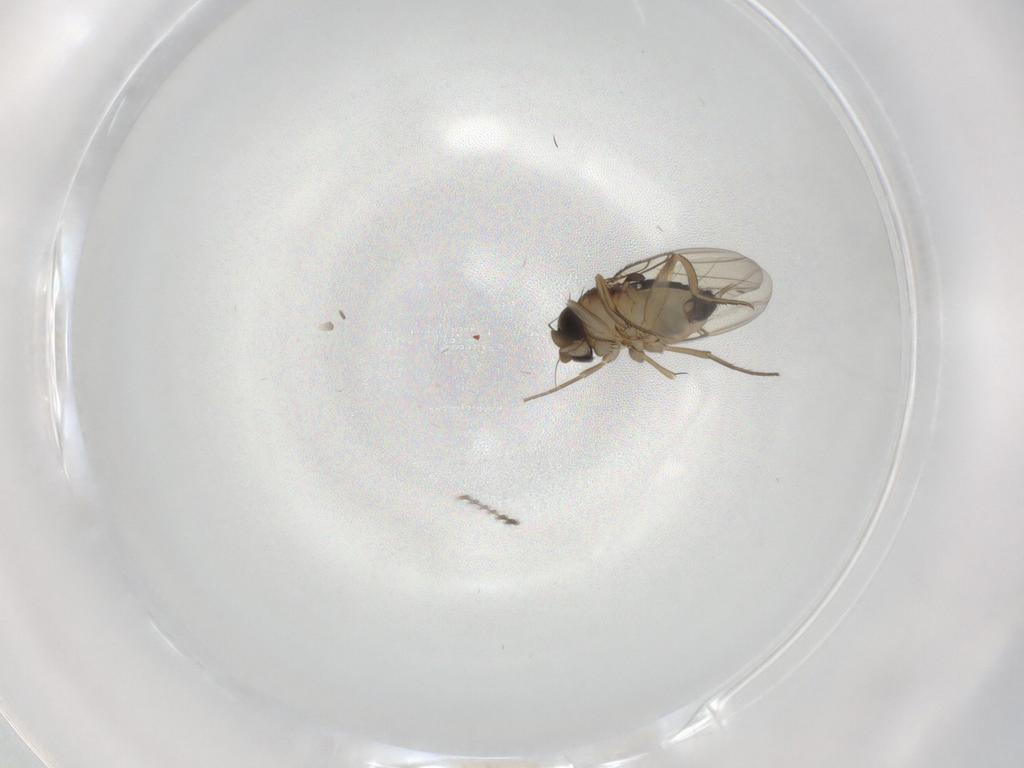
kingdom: Animalia
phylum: Arthropoda
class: Insecta
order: Diptera
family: Phoridae
